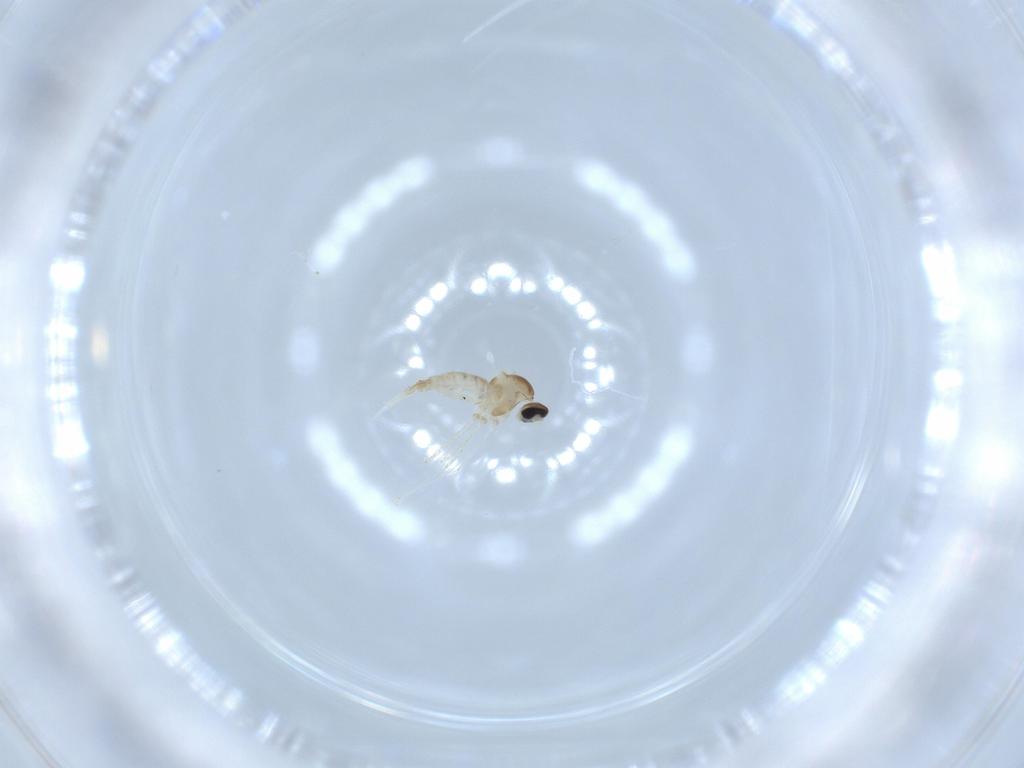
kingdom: Animalia
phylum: Arthropoda
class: Insecta
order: Diptera
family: Cecidomyiidae
